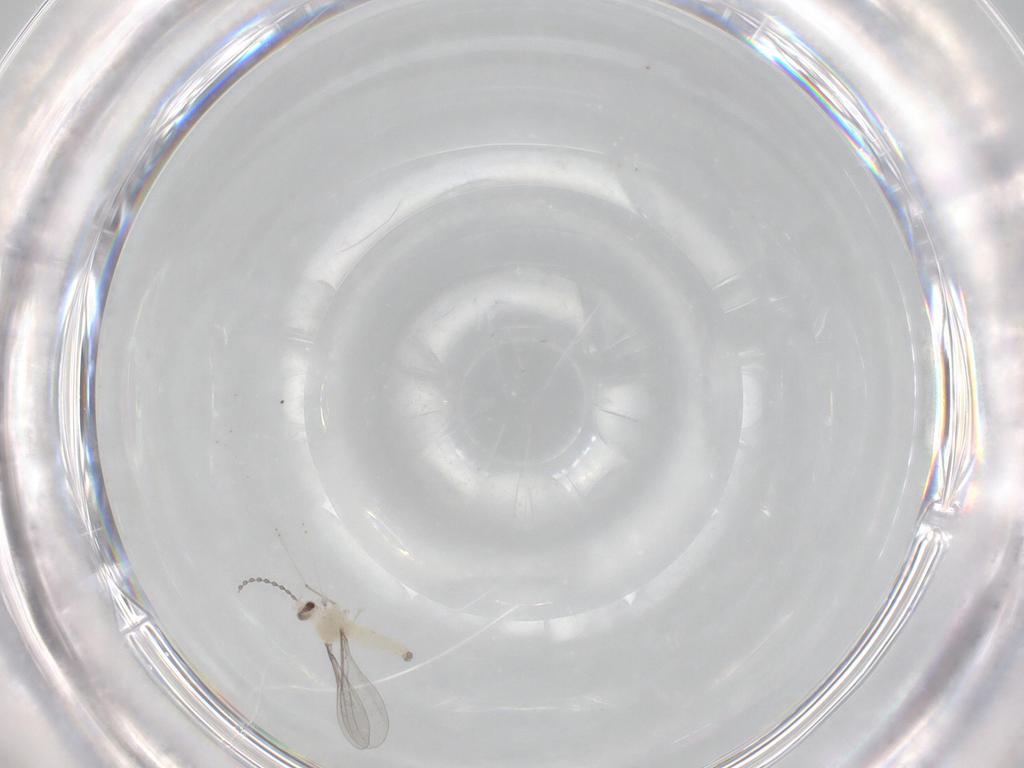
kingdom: Animalia
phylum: Arthropoda
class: Insecta
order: Diptera
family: Cecidomyiidae
